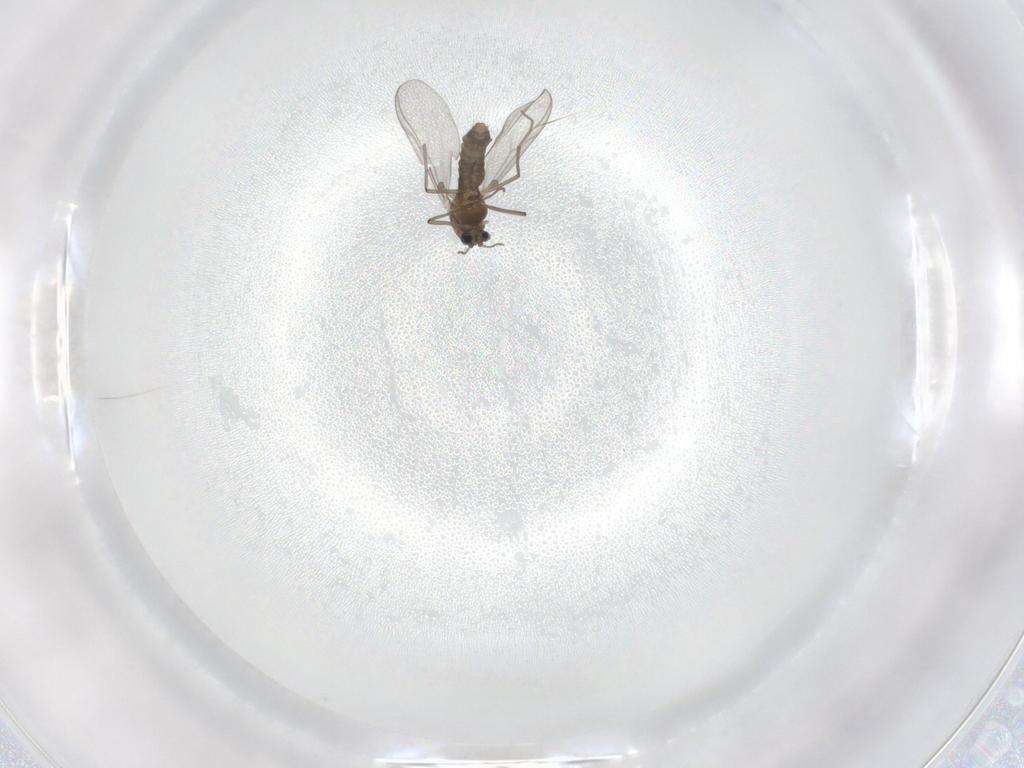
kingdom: Animalia
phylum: Arthropoda
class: Insecta
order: Diptera
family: Chironomidae
